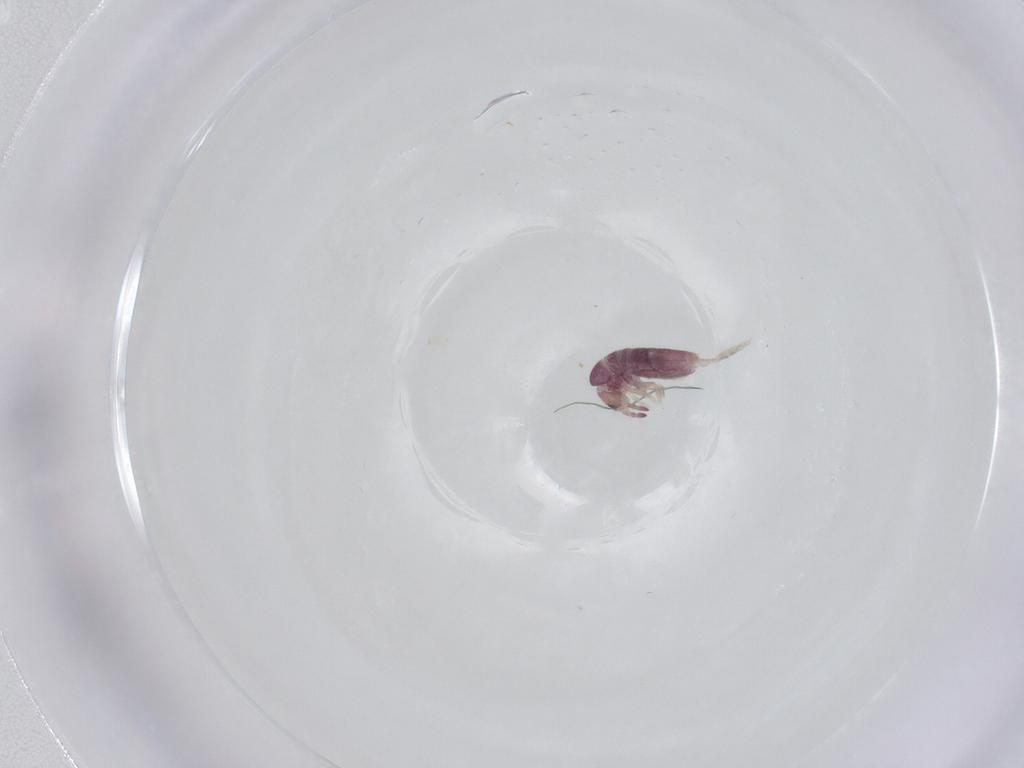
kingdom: Animalia
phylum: Arthropoda
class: Collembola
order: Entomobryomorpha
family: Entomobryidae
